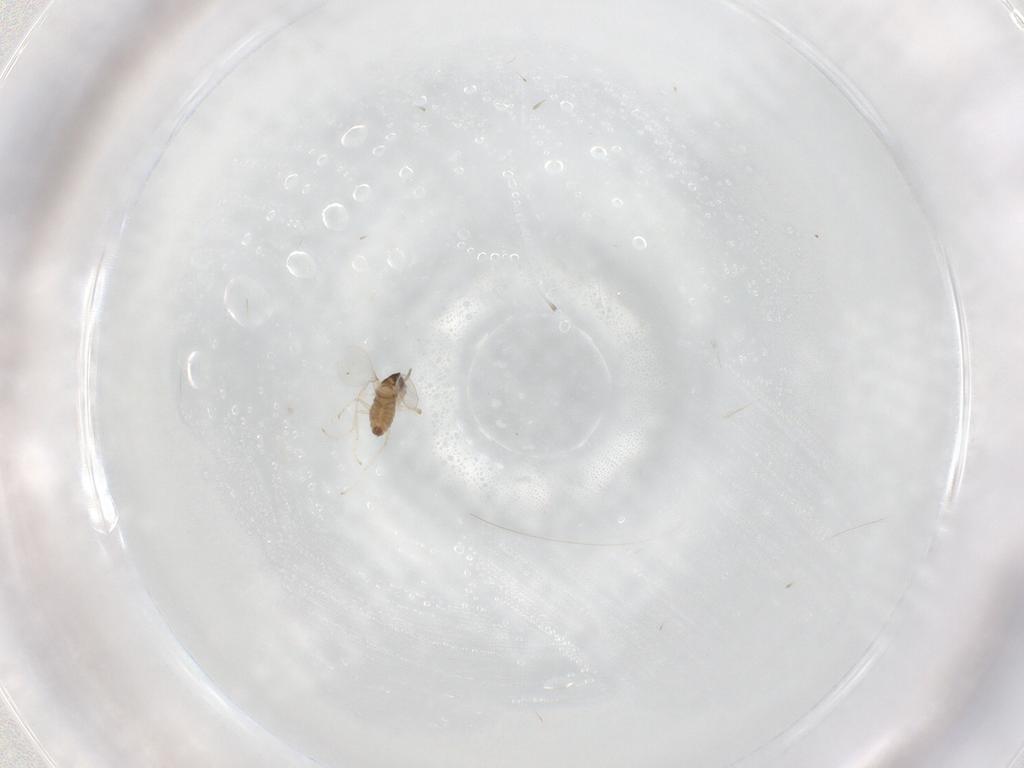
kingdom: Animalia
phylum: Arthropoda
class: Insecta
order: Diptera
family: Cecidomyiidae
